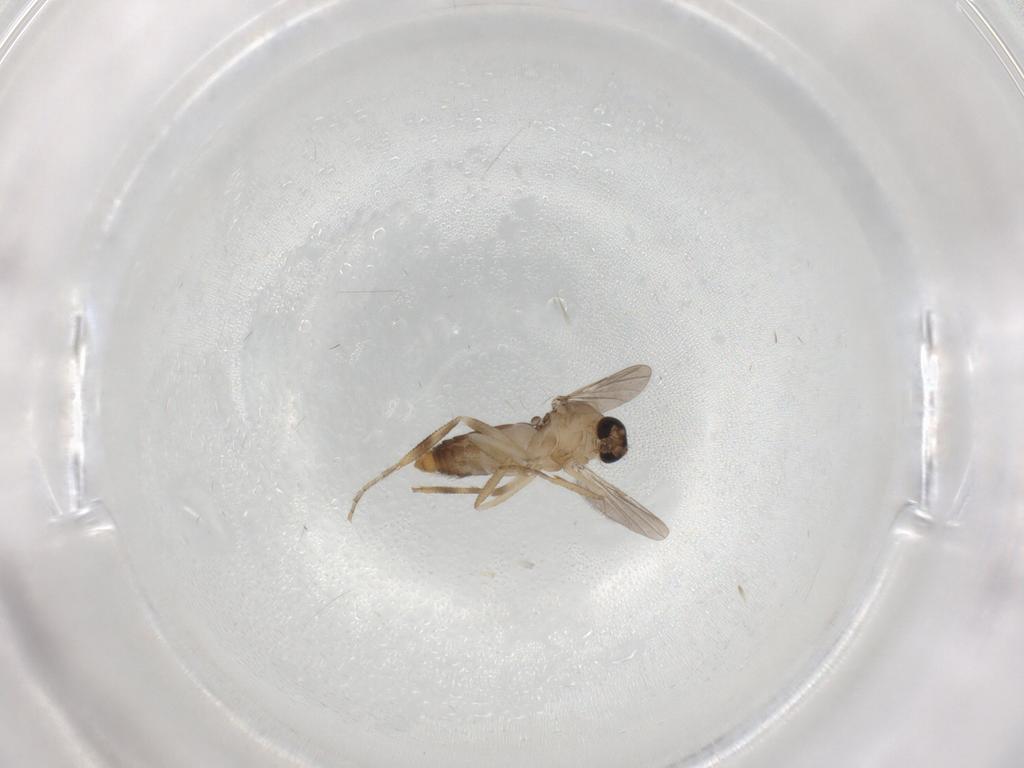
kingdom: Animalia
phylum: Arthropoda
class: Insecta
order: Diptera
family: Ceratopogonidae
